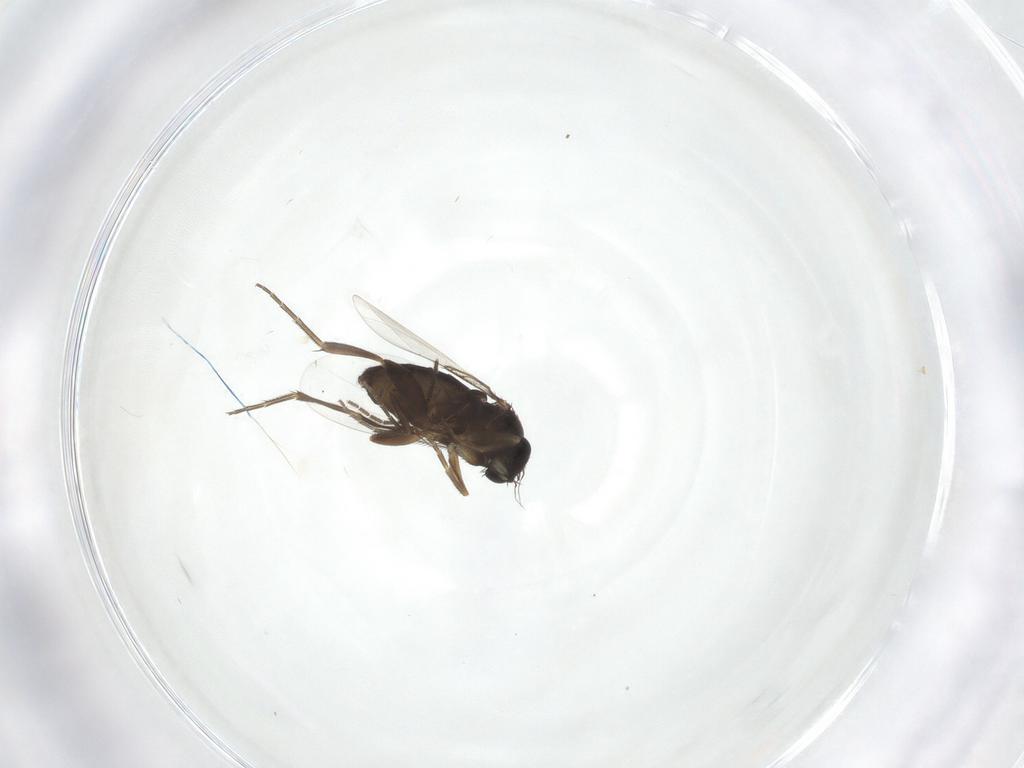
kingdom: Animalia
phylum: Arthropoda
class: Insecta
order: Diptera
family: Phoridae
